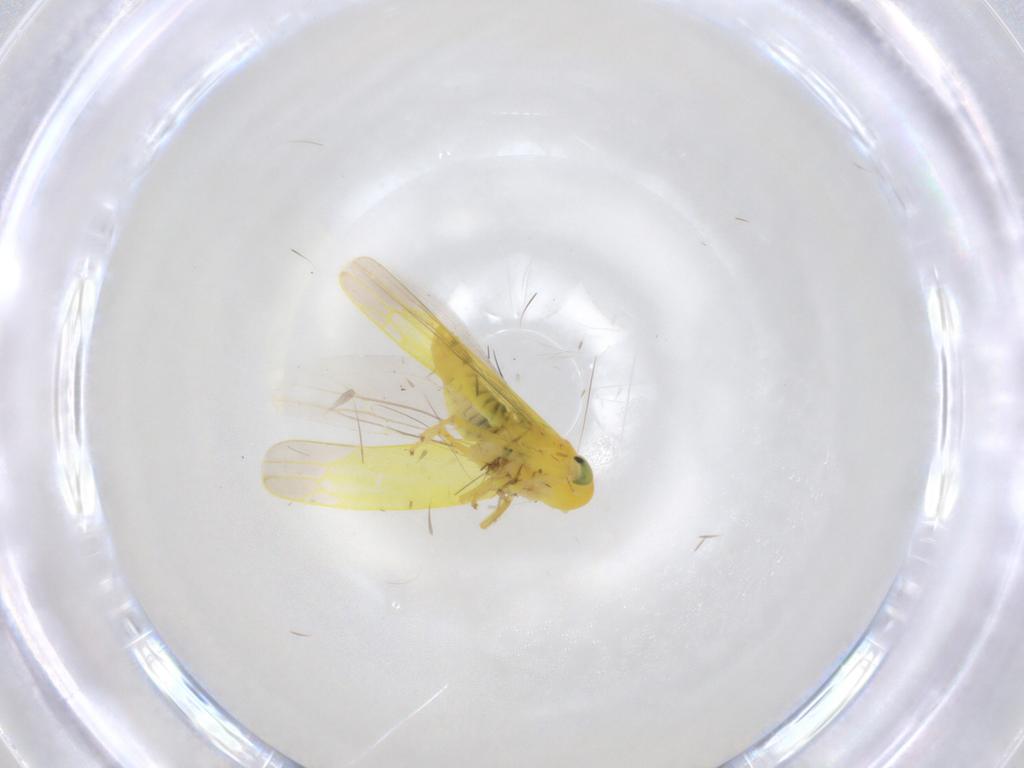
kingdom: Animalia
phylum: Arthropoda
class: Insecta
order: Hemiptera
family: Cicadellidae
